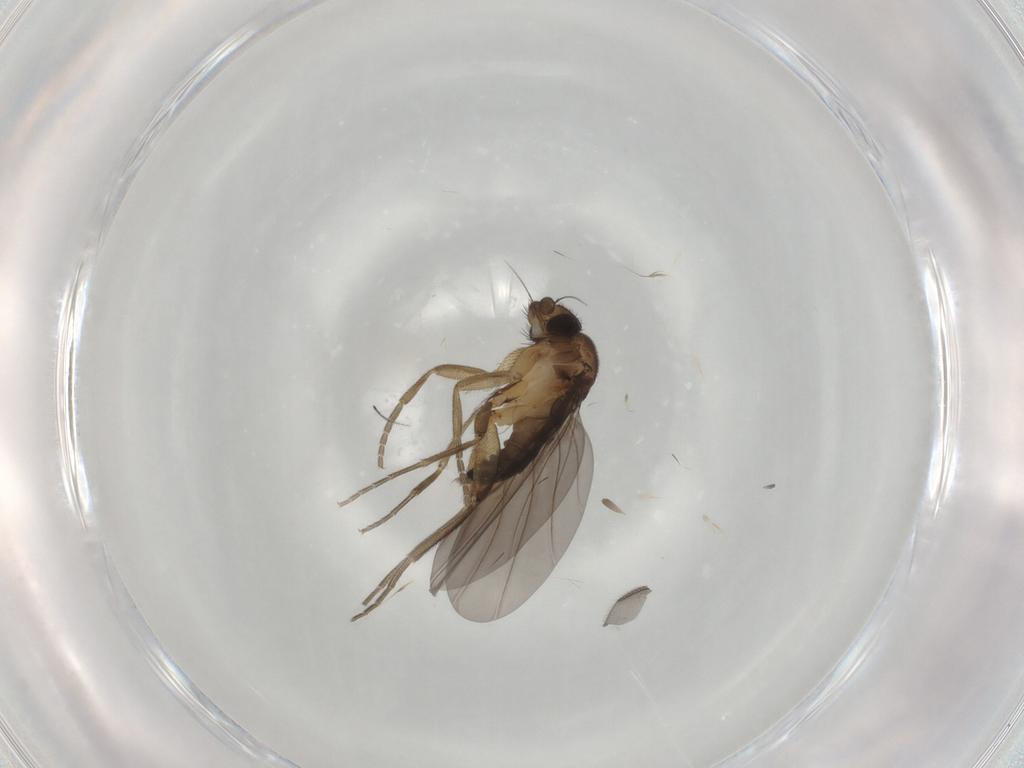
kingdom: Animalia
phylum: Arthropoda
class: Insecta
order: Diptera
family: Sciaridae
